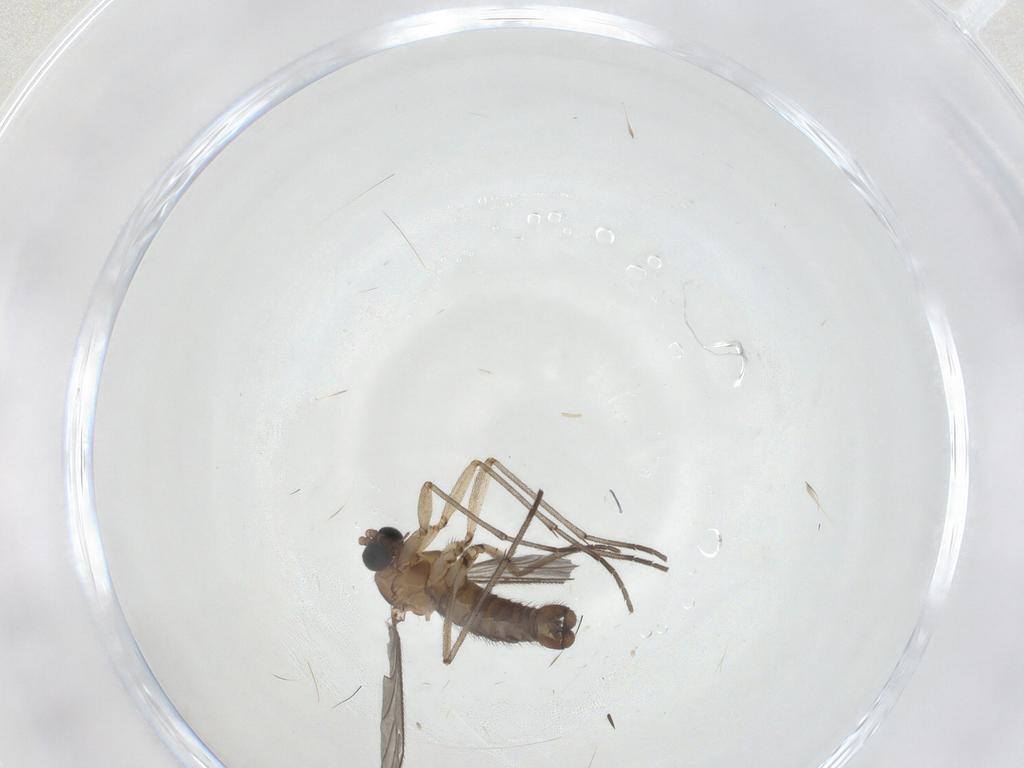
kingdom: Animalia
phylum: Arthropoda
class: Insecta
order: Diptera
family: Sciaridae
